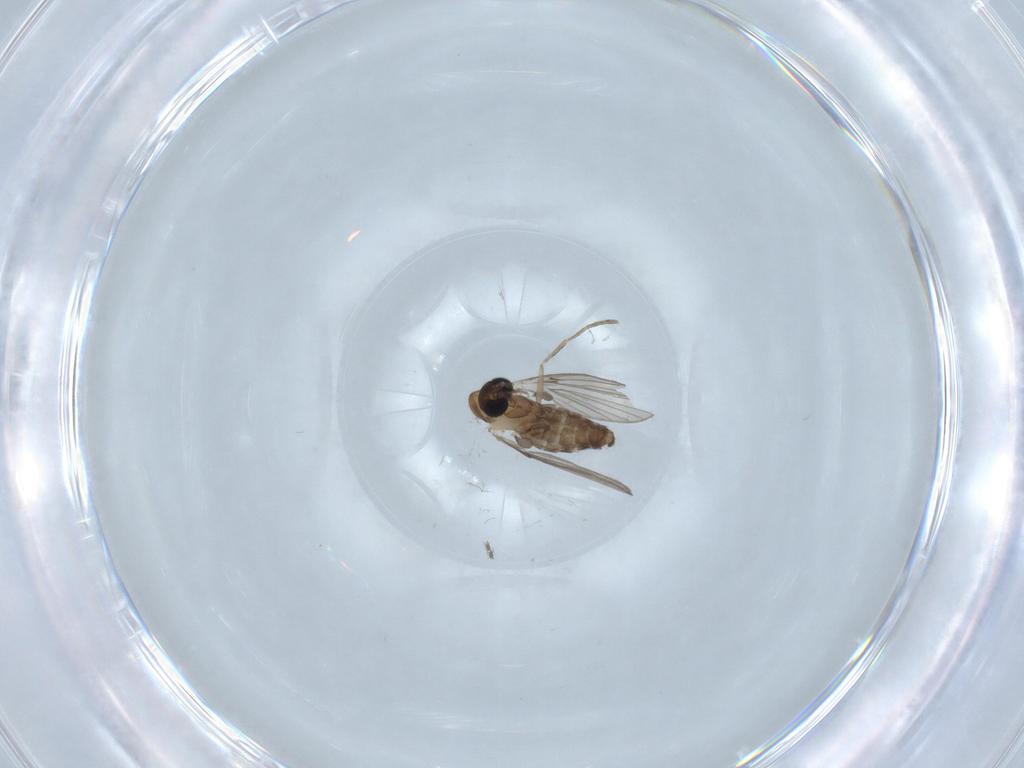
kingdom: Animalia
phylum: Arthropoda
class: Insecta
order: Diptera
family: Psychodidae
